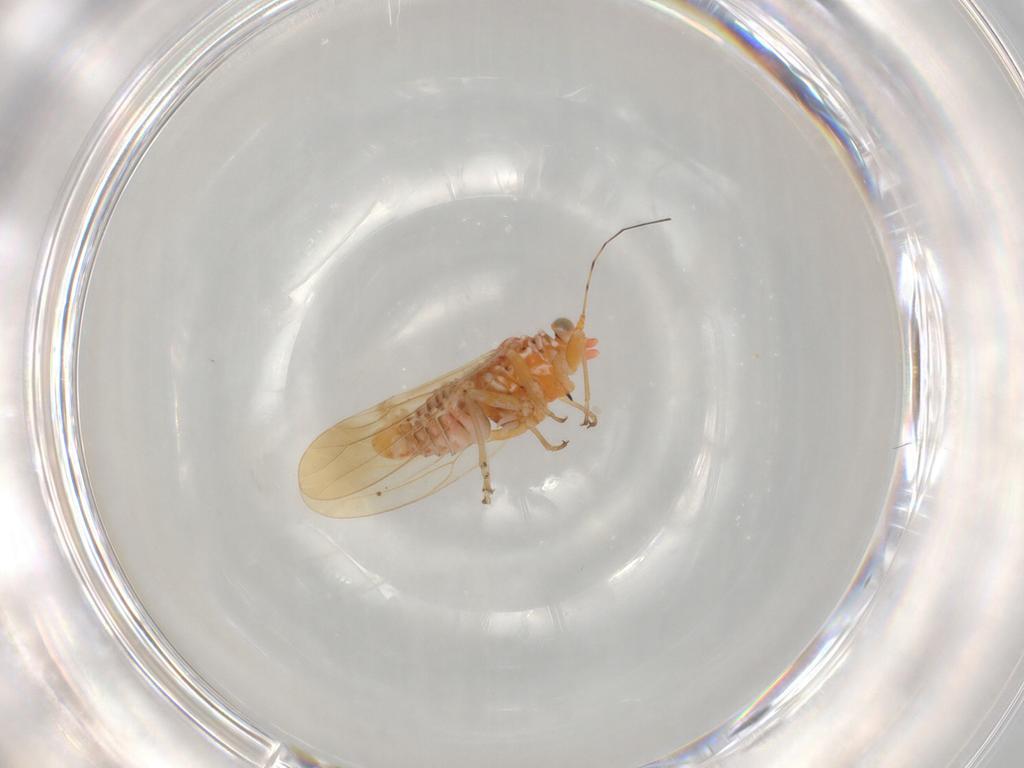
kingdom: Animalia
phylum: Arthropoda
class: Insecta
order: Hemiptera
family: Psyllidae
